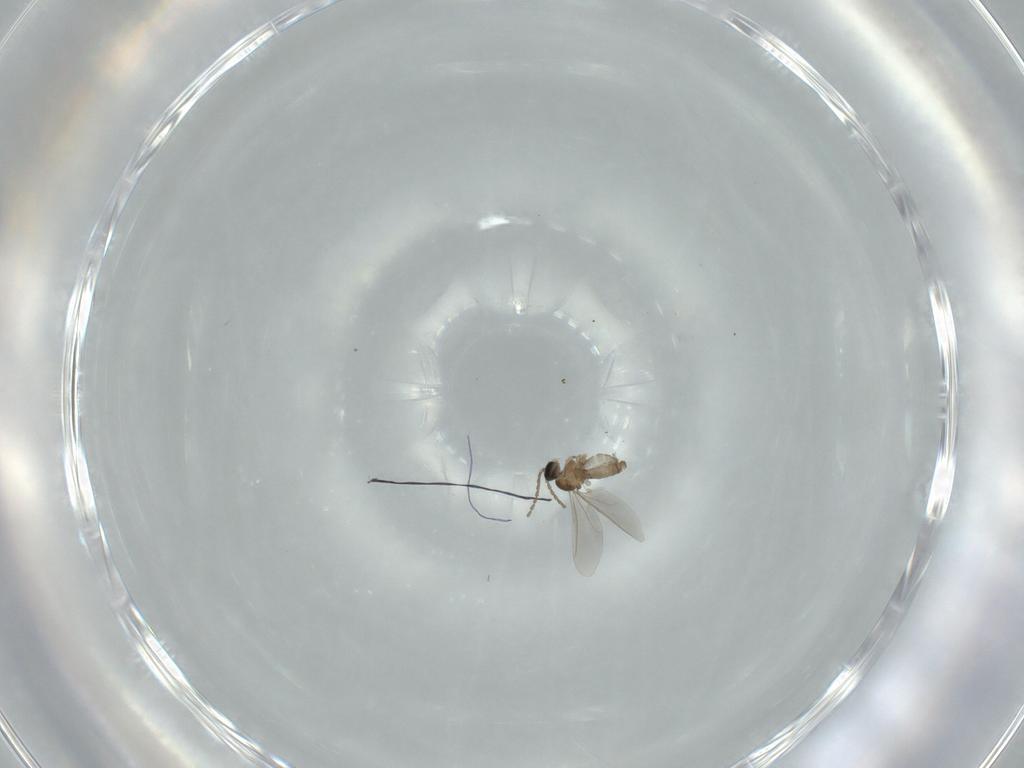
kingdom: Animalia
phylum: Arthropoda
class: Insecta
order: Diptera
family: Sphaeroceridae
